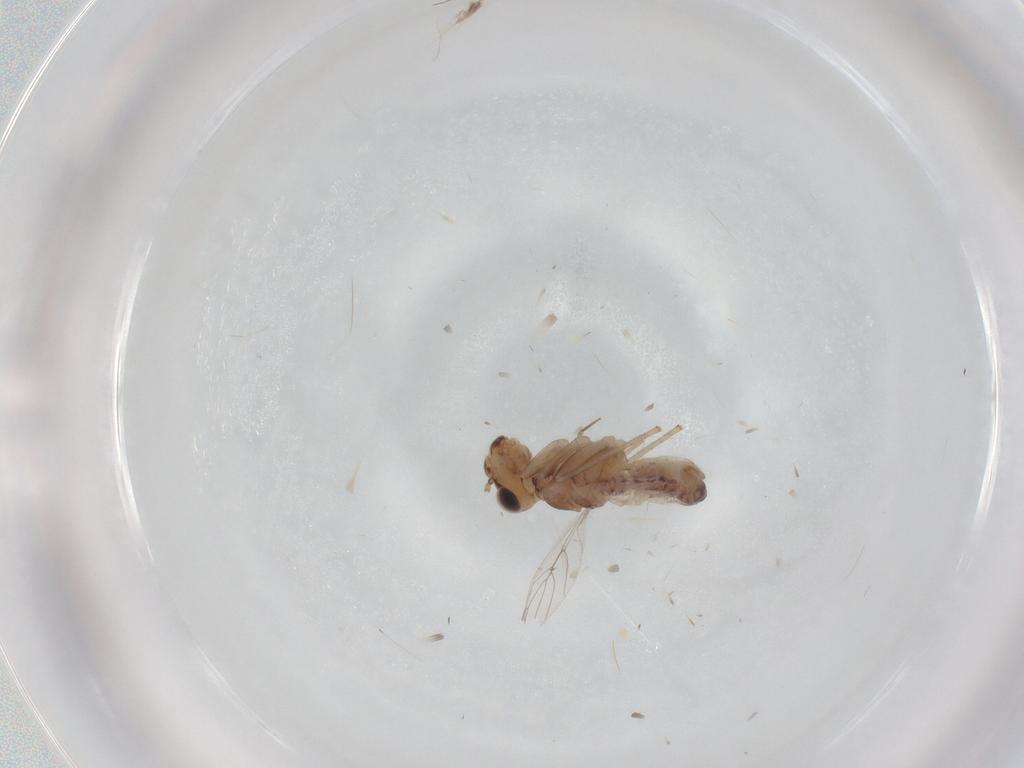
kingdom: Animalia
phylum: Arthropoda
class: Insecta
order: Psocodea
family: Lepidopsocidae
